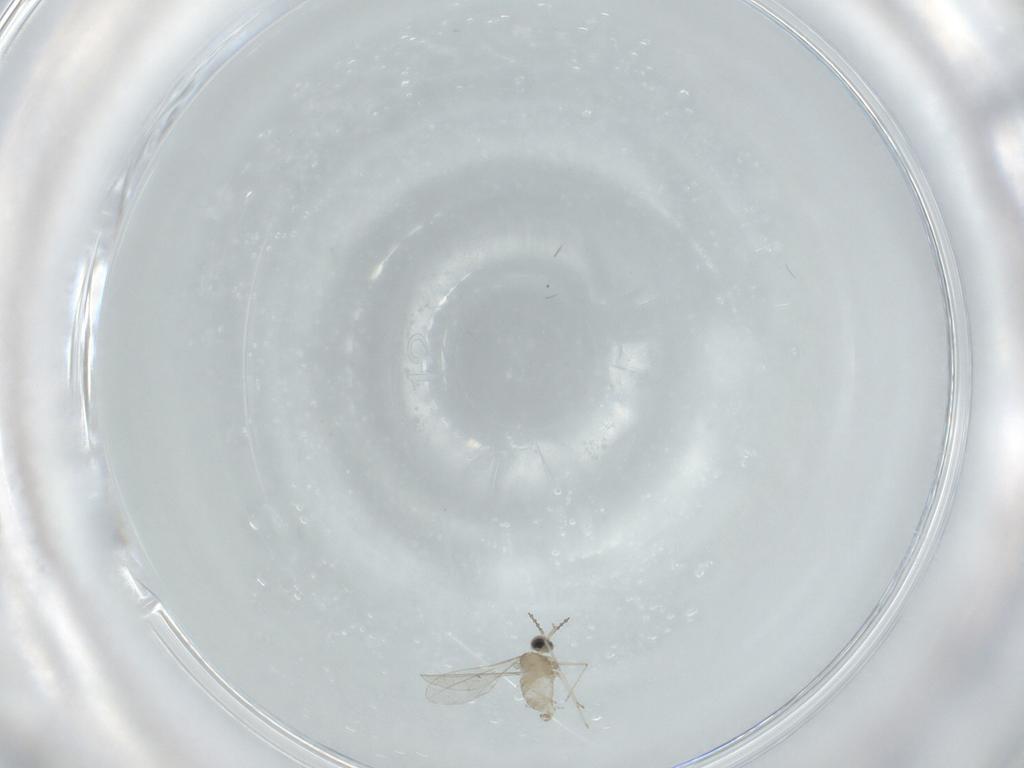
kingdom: Animalia
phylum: Arthropoda
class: Insecta
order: Diptera
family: Cecidomyiidae
